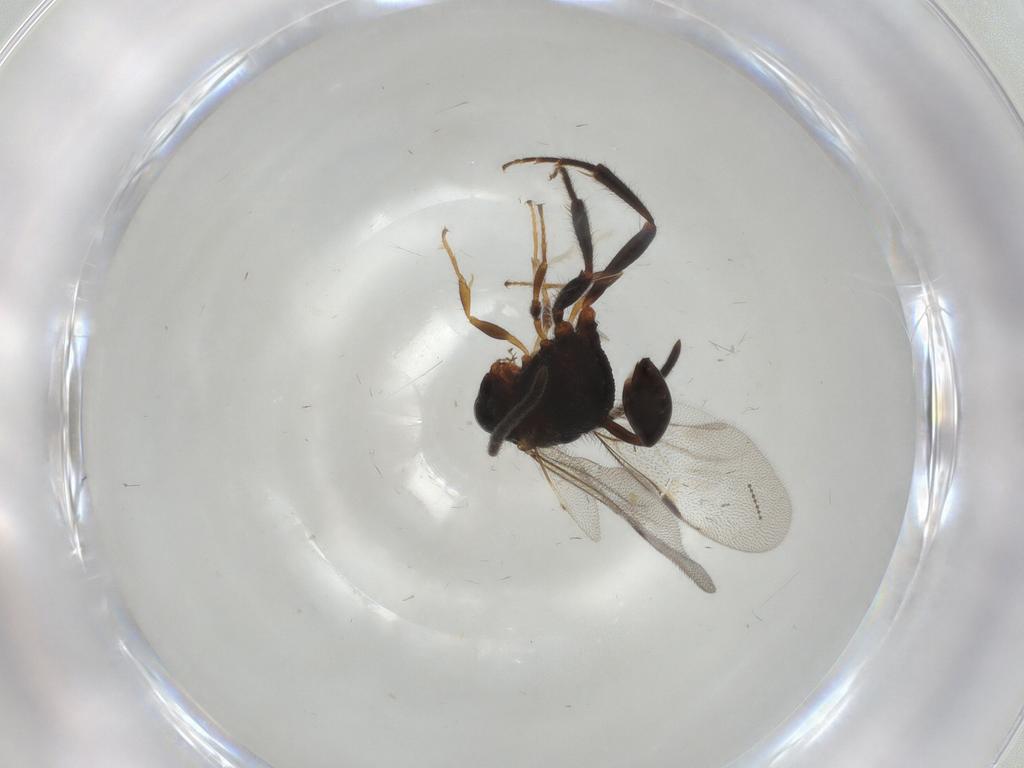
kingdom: Animalia
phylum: Arthropoda
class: Insecta
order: Hymenoptera
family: Evaniidae
